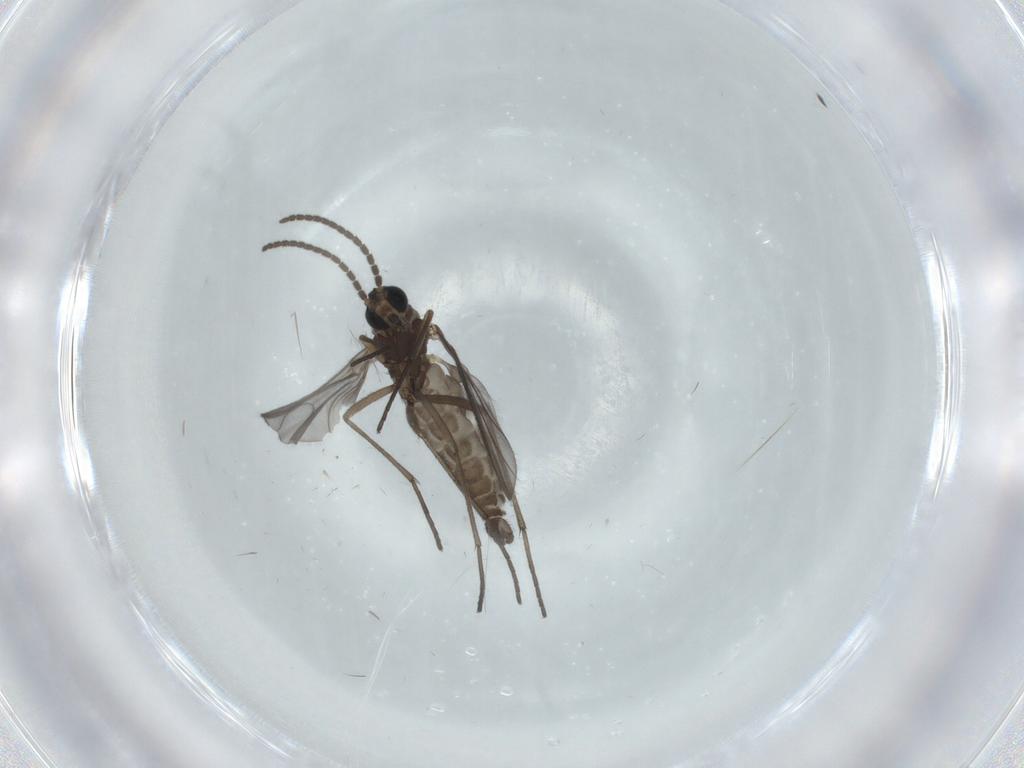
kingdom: Animalia
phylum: Arthropoda
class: Insecta
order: Diptera
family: Sciaridae
